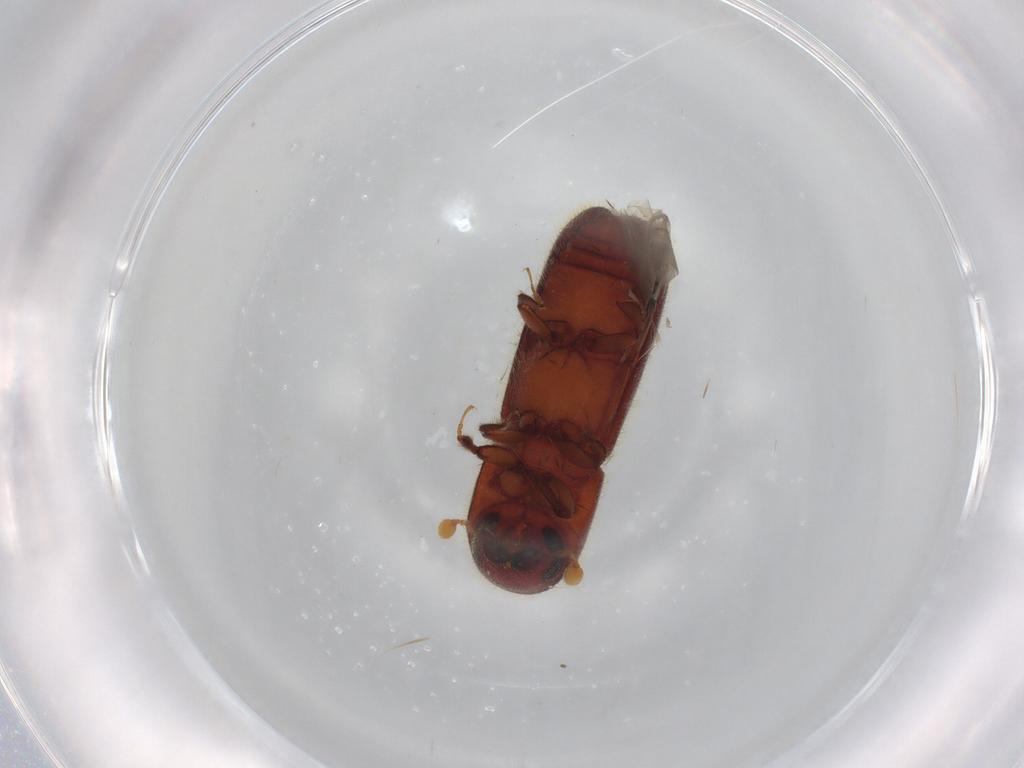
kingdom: Animalia
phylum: Arthropoda
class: Insecta
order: Coleoptera
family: Curculionidae
